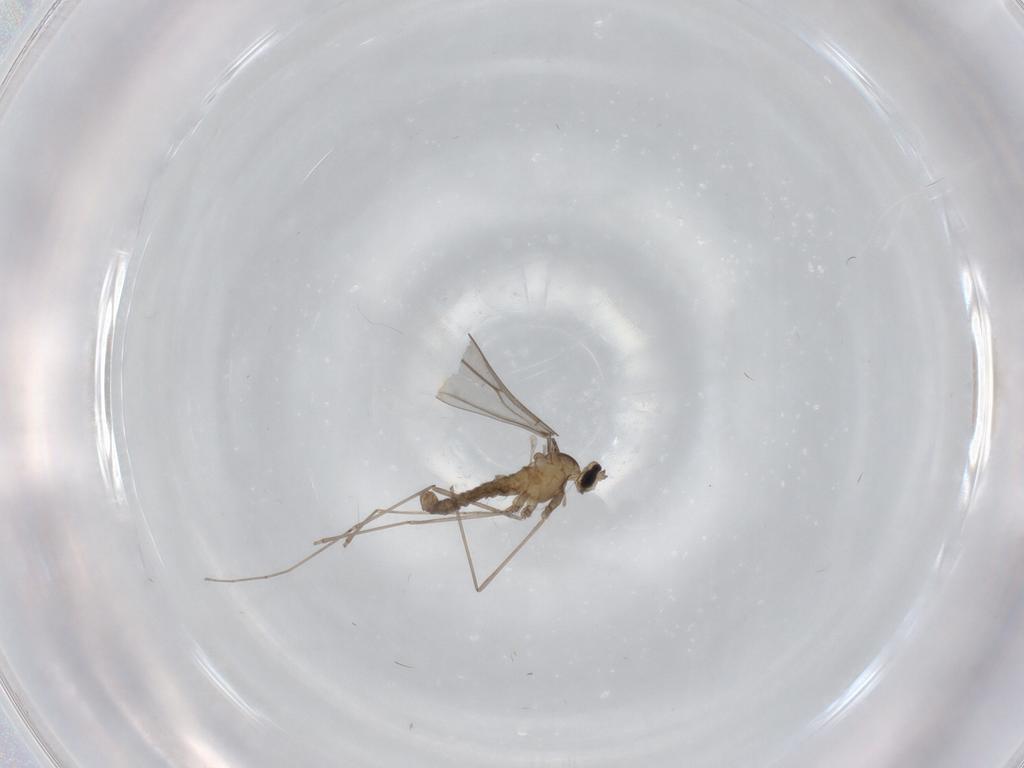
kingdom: Animalia
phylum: Arthropoda
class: Insecta
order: Diptera
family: Cecidomyiidae
